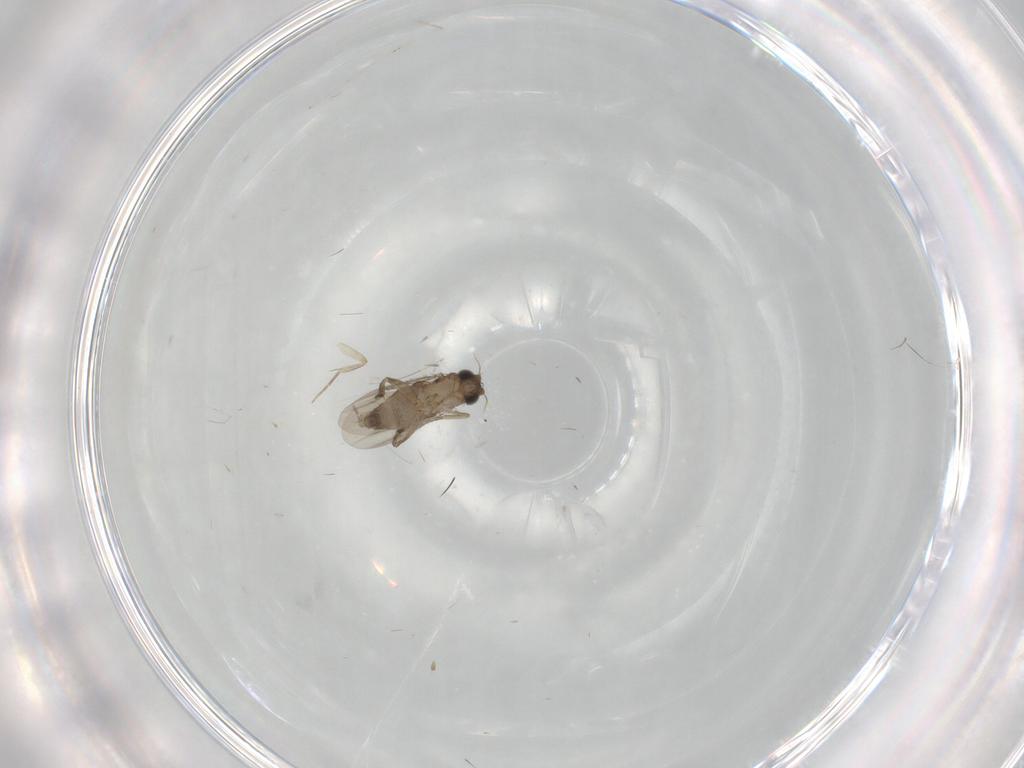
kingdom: Animalia
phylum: Arthropoda
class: Insecta
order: Diptera
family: Phoridae
